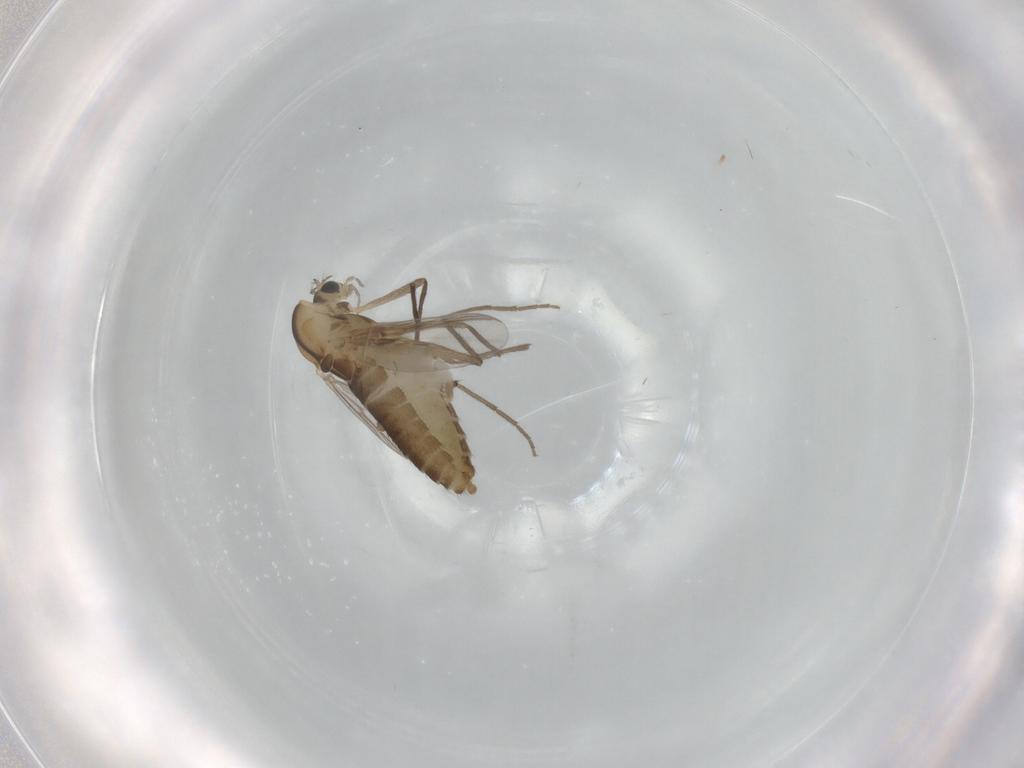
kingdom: Animalia
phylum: Arthropoda
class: Insecta
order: Diptera
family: Chironomidae
